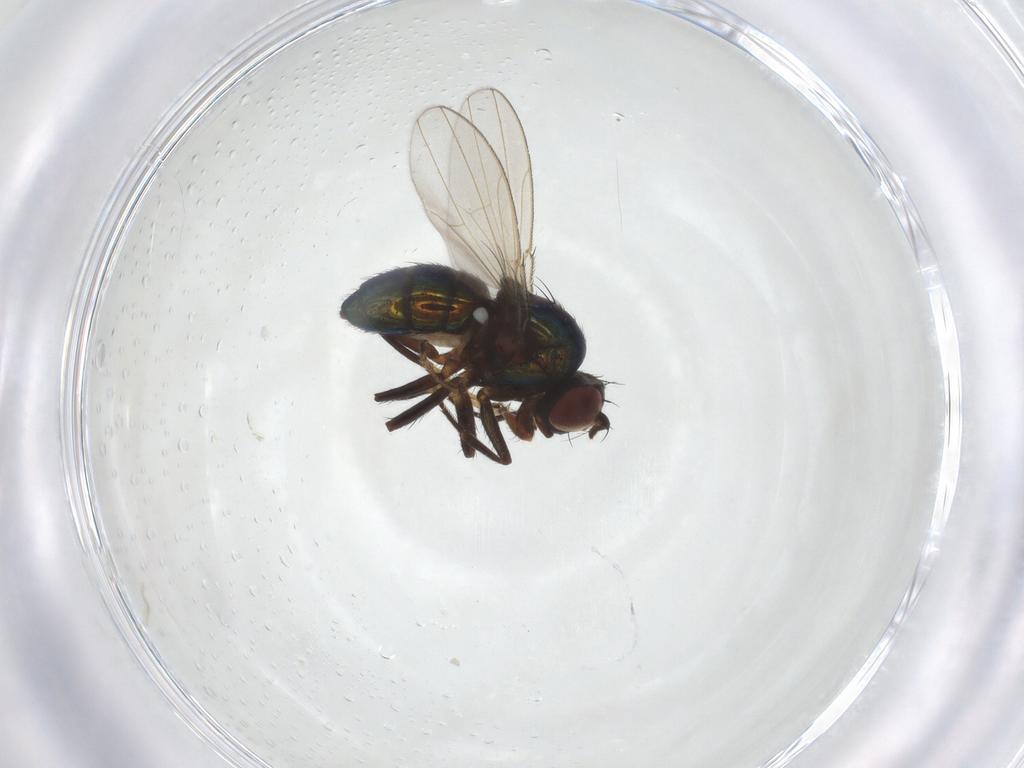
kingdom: Animalia
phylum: Arthropoda
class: Insecta
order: Diptera
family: Ephydridae
